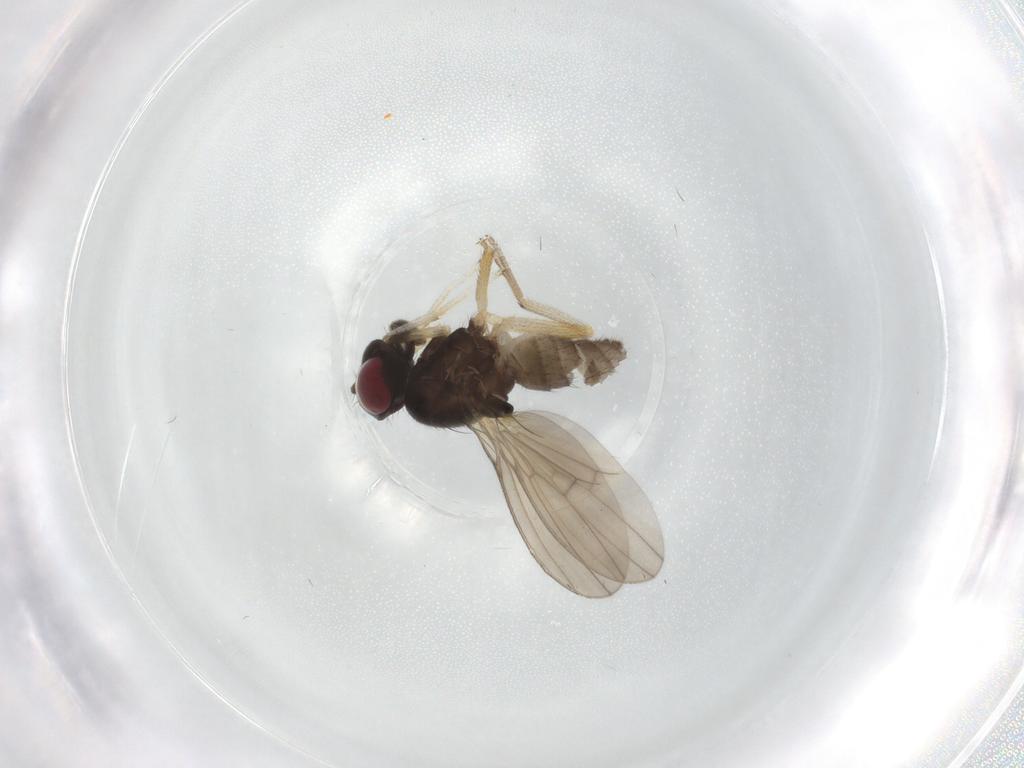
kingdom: Animalia
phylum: Arthropoda
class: Insecta
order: Diptera
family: Lauxaniidae
